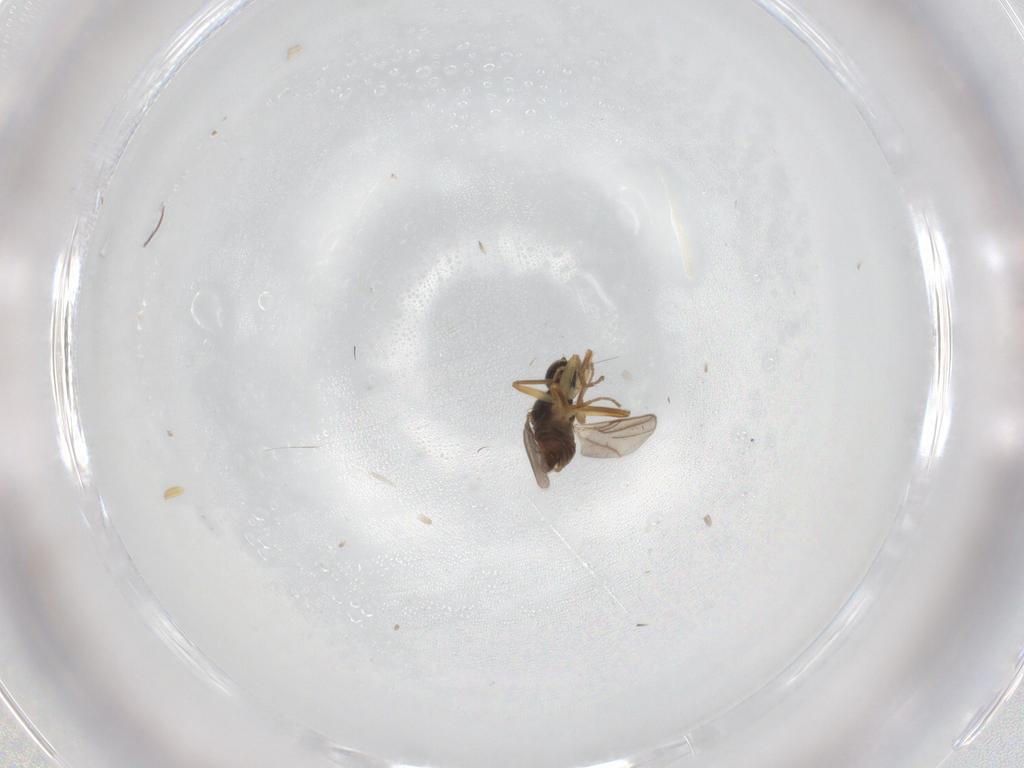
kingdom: Animalia
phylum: Arthropoda
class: Insecta
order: Diptera
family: Hybotidae
